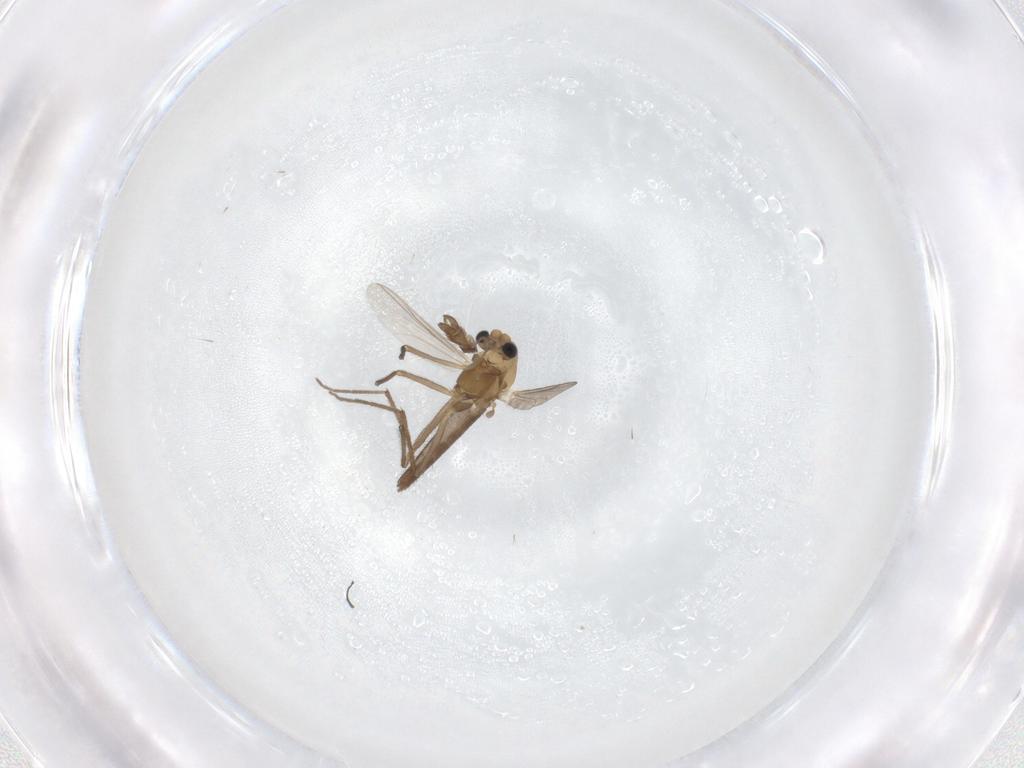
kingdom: Animalia
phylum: Arthropoda
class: Insecta
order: Diptera
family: Chironomidae
